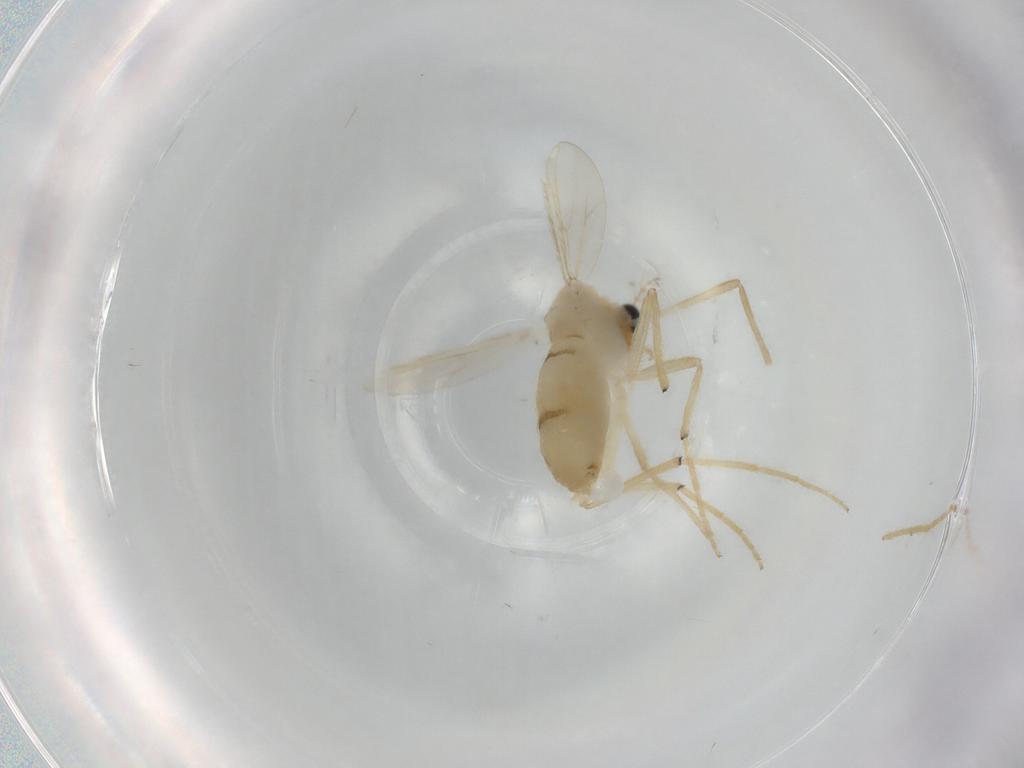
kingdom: Animalia
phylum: Arthropoda
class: Insecta
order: Diptera
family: Chironomidae
